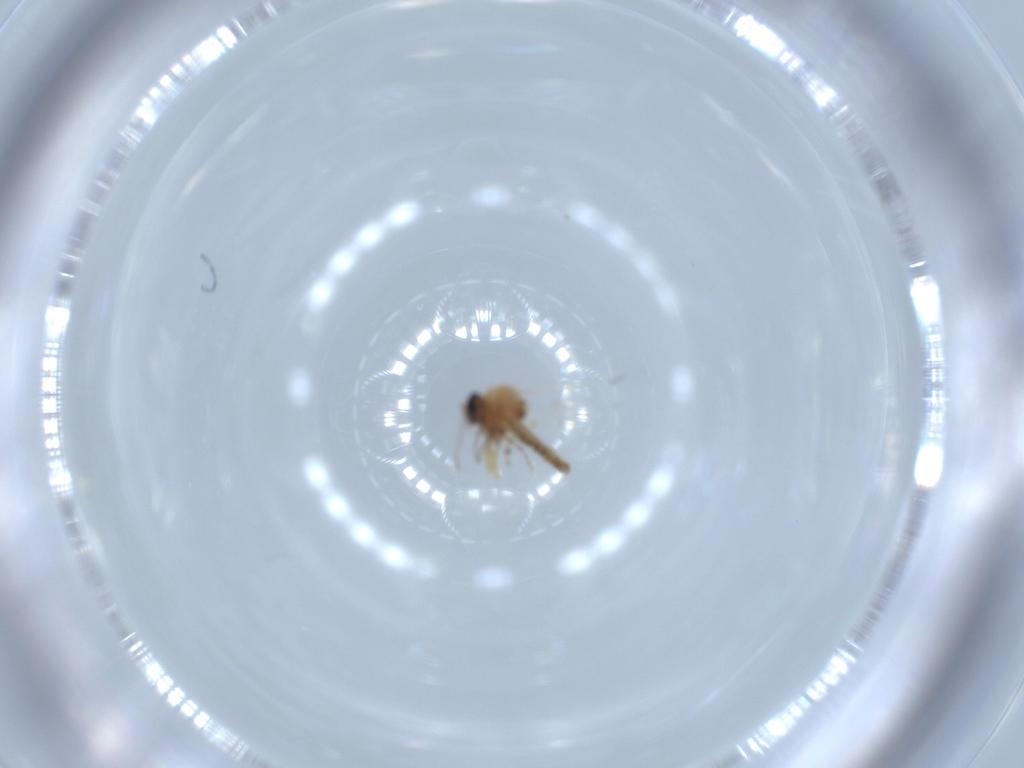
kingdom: Animalia
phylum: Arthropoda
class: Insecta
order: Diptera
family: Ceratopogonidae
